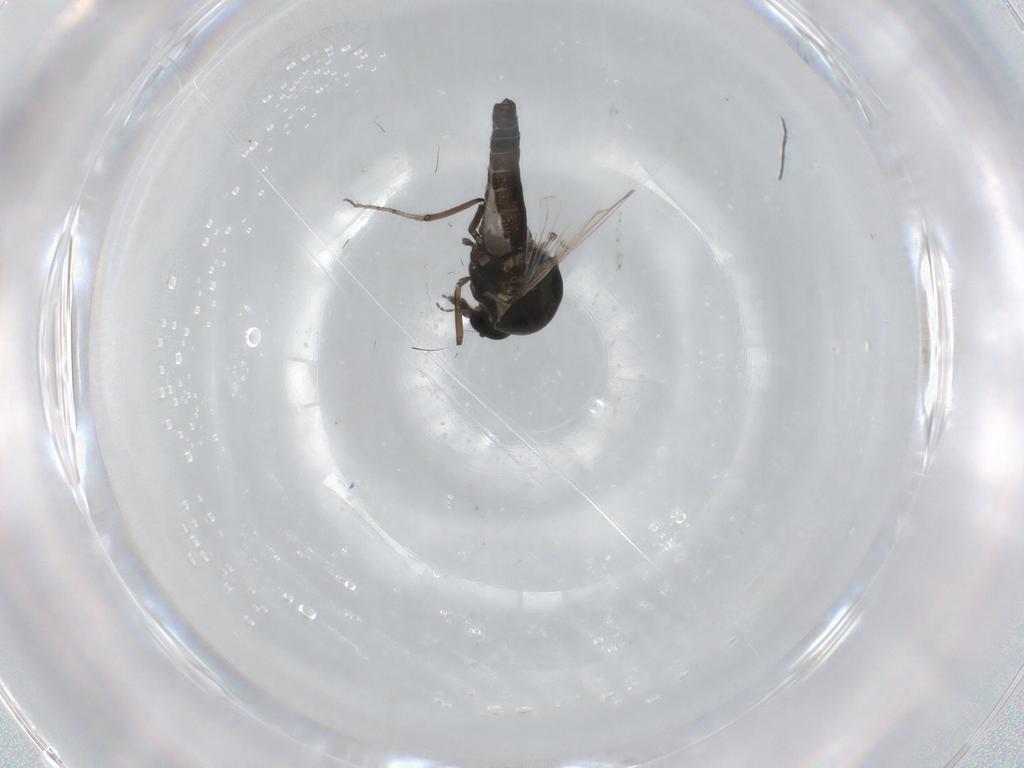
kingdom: Animalia
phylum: Arthropoda
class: Insecta
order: Diptera
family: Ceratopogonidae
